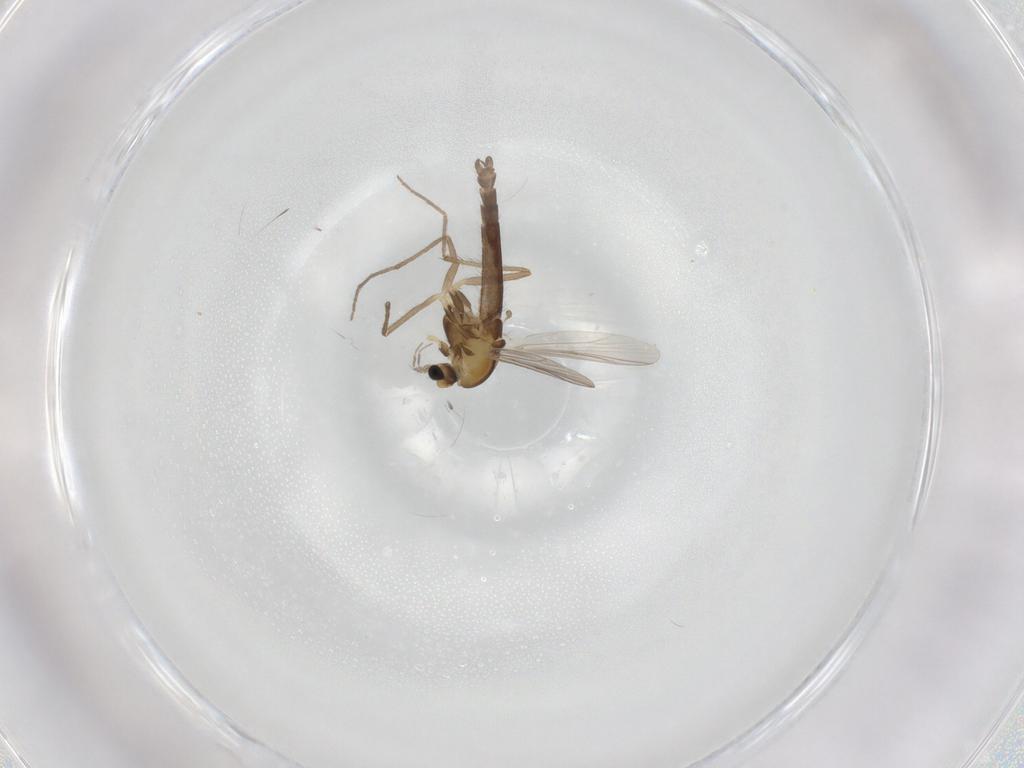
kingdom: Animalia
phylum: Arthropoda
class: Insecta
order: Diptera
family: Chironomidae
